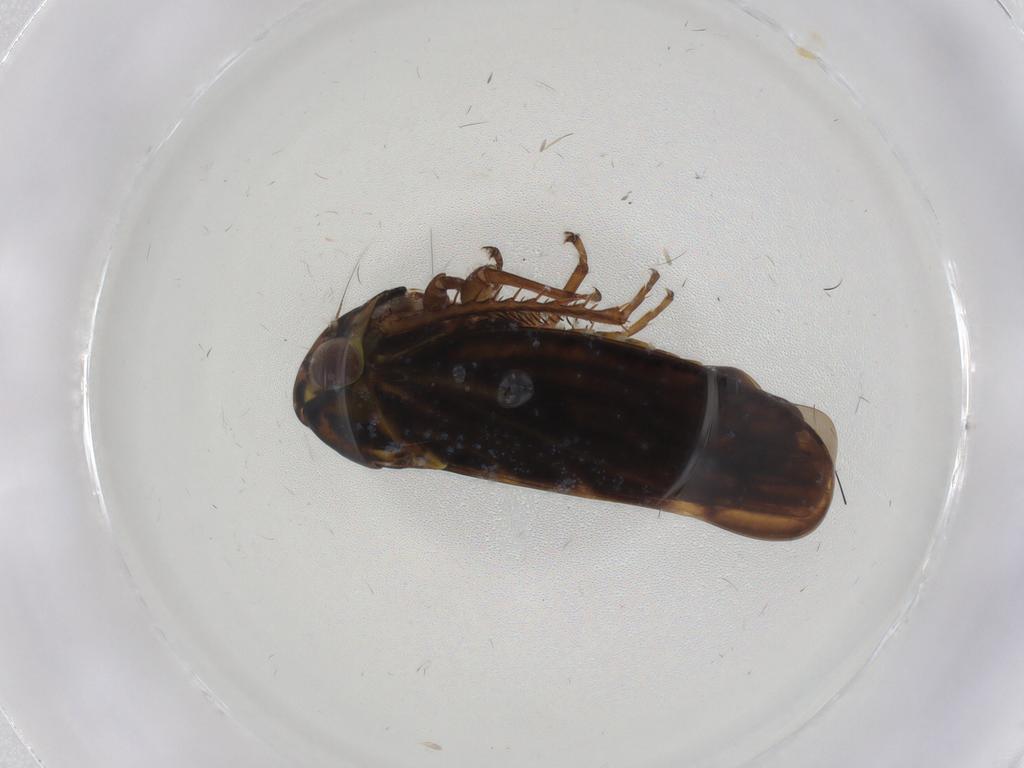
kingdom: Animalia
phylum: Arthropoda
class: Insecta
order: Hemiptera
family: Cicadellidae
